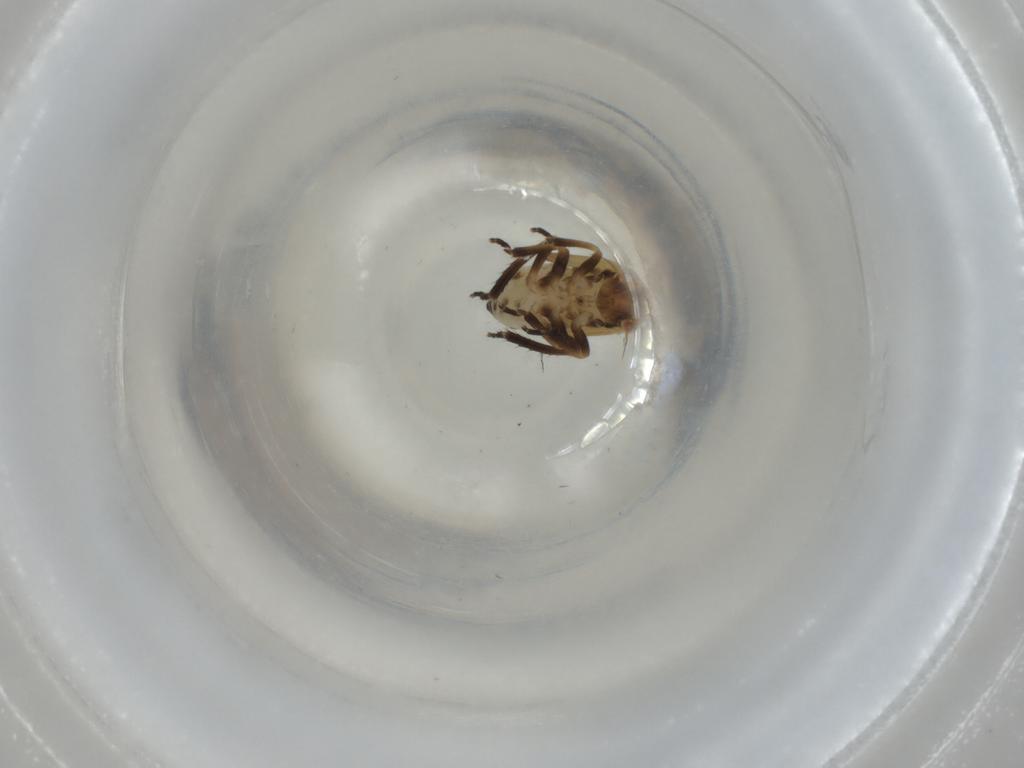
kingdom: Animalia
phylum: Arthropoda
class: Insecta
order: Hemiptera
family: Cicadellidae
